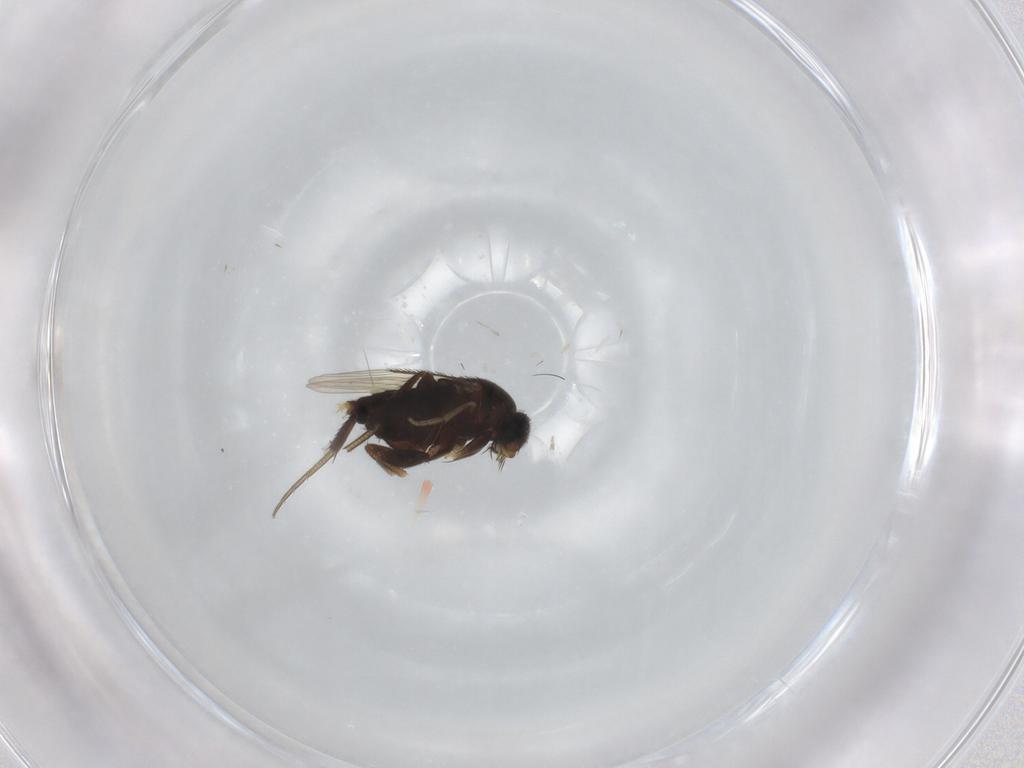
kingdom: Animalia
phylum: Arthropoda
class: Insecta
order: Diptera
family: Phoridae
